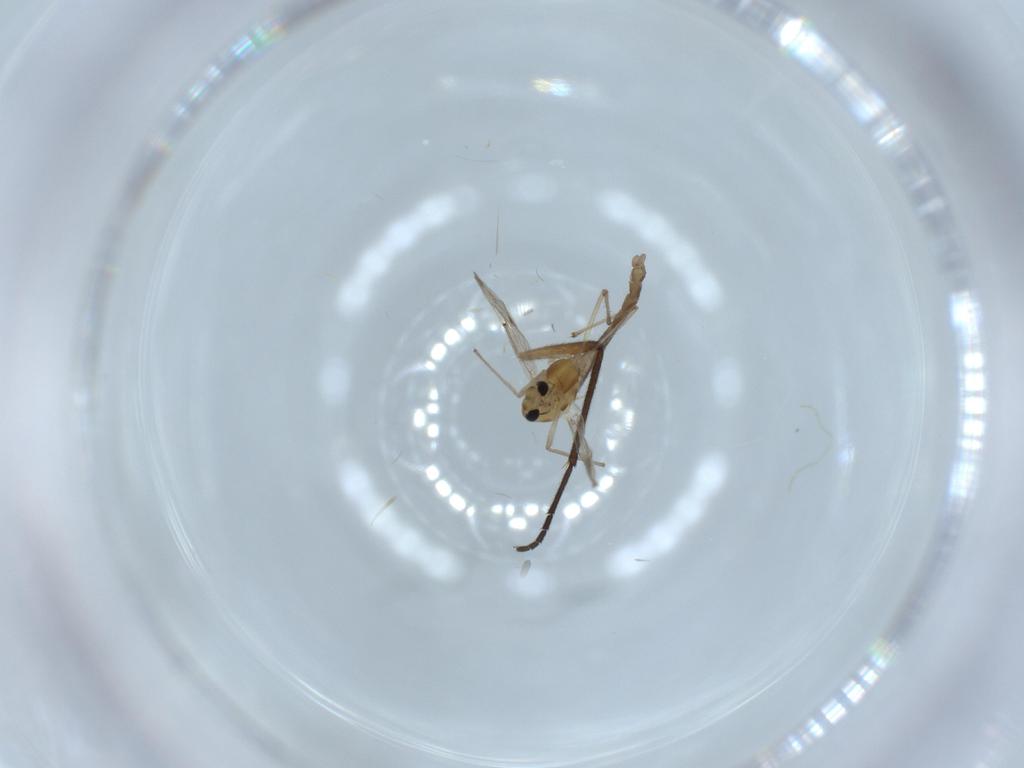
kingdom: Animalia
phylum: Arthropoda
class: Insecta
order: Diptera
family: Chironomidae
